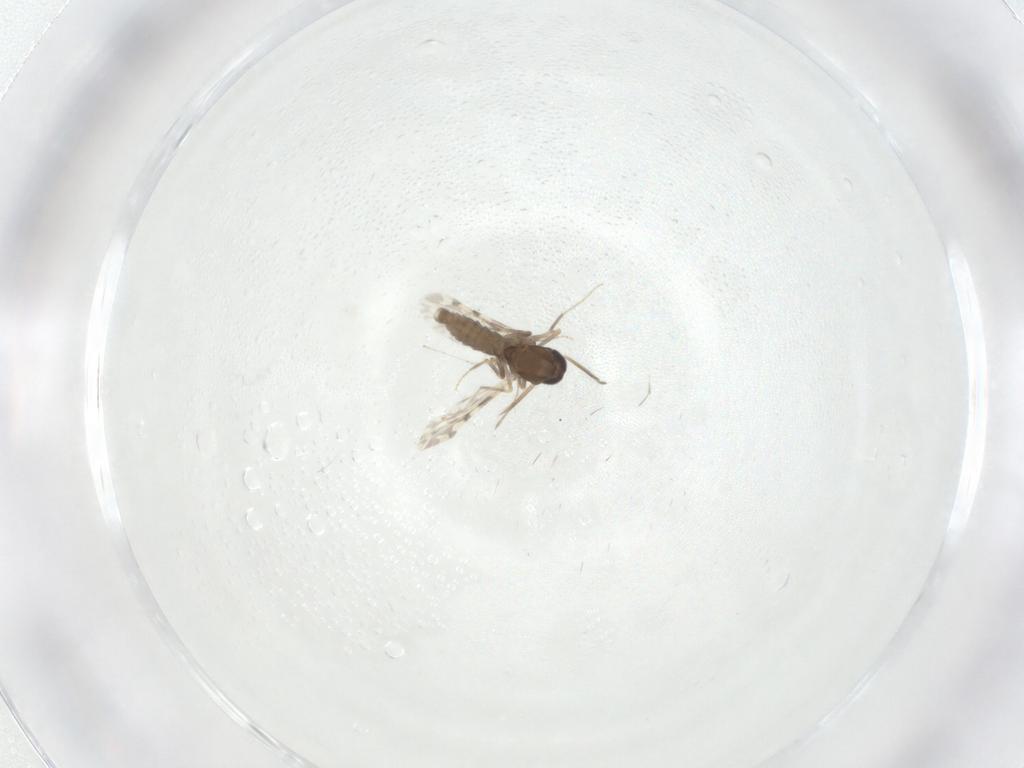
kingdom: Animalia
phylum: Arthropoda
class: Insecta
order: Diptera
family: Ceratopogonidae
